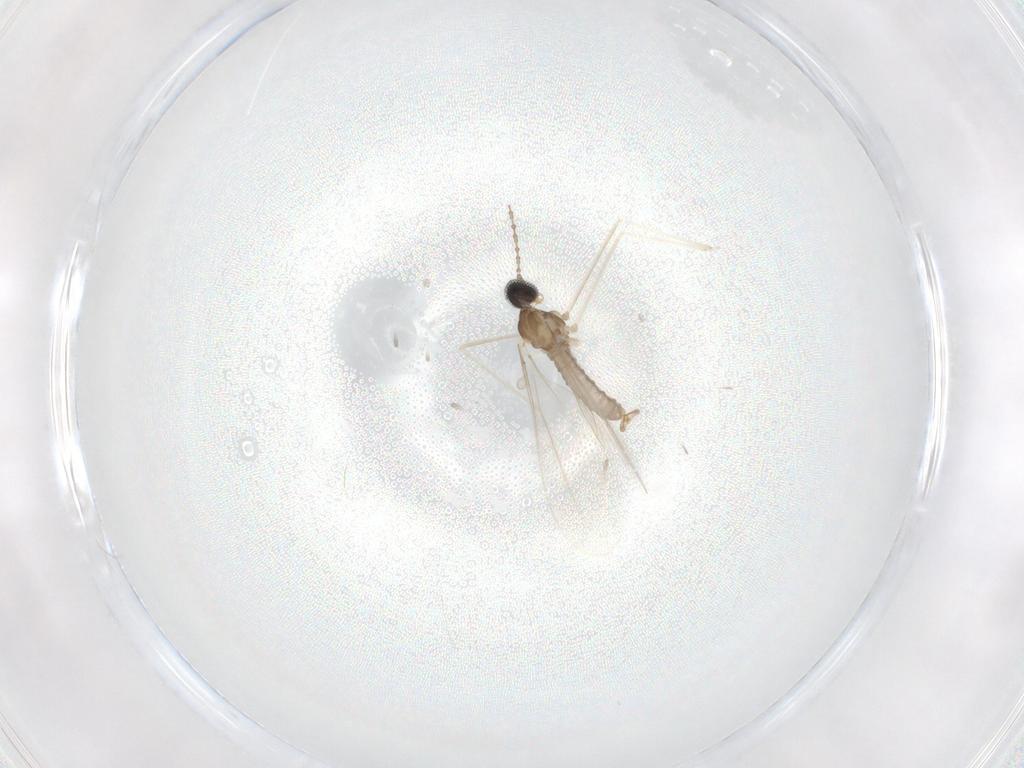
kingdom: Animalia
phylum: Arthropoda
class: Insecta
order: Diptera
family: Cecidomyiidae
